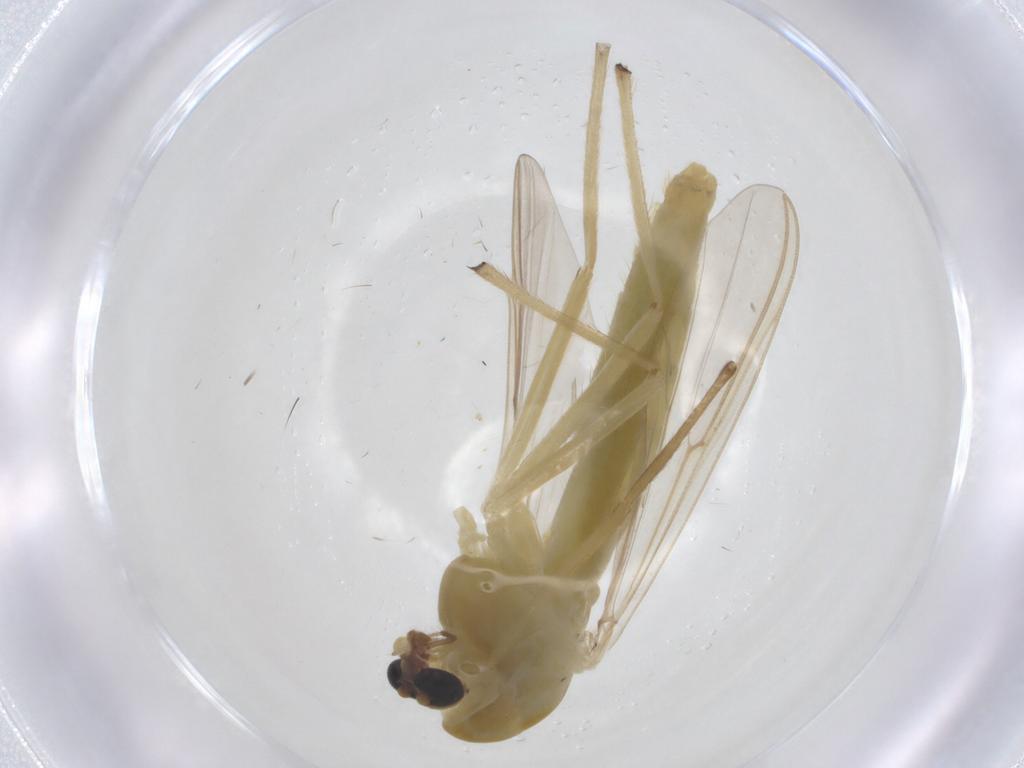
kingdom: Animalia
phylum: Arthropoda
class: Insecta
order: Diptera
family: Chironomidae
